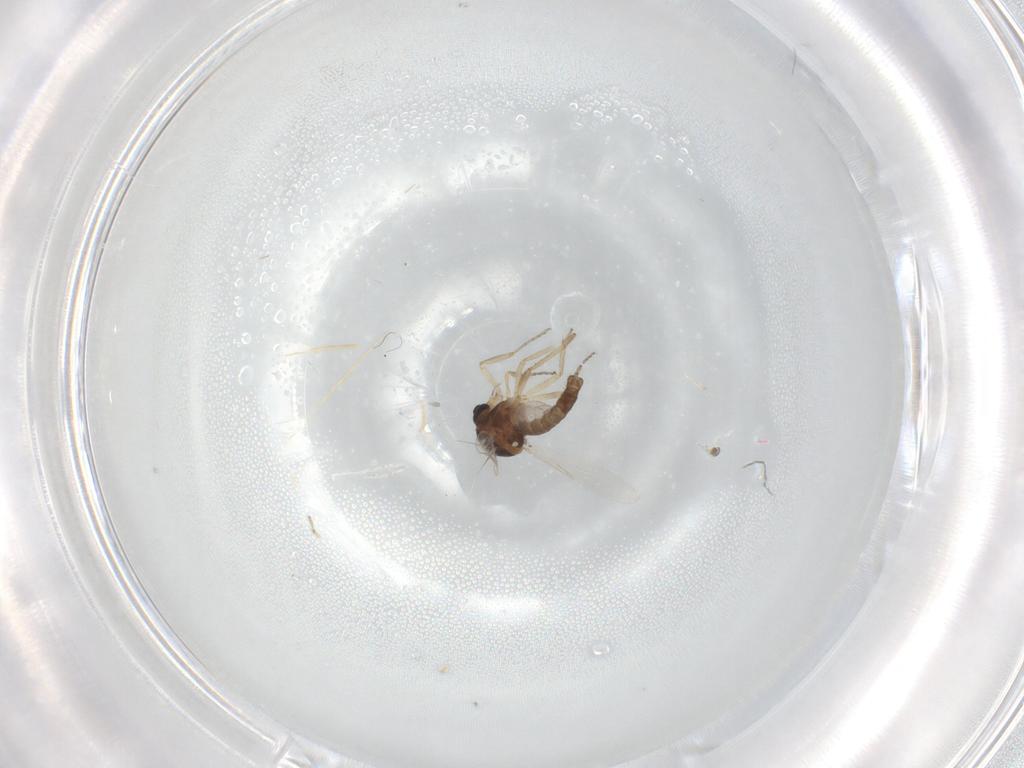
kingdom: Animalia
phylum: Arthropoda
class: Insecta
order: Diptera
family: Ceratopogonidae
